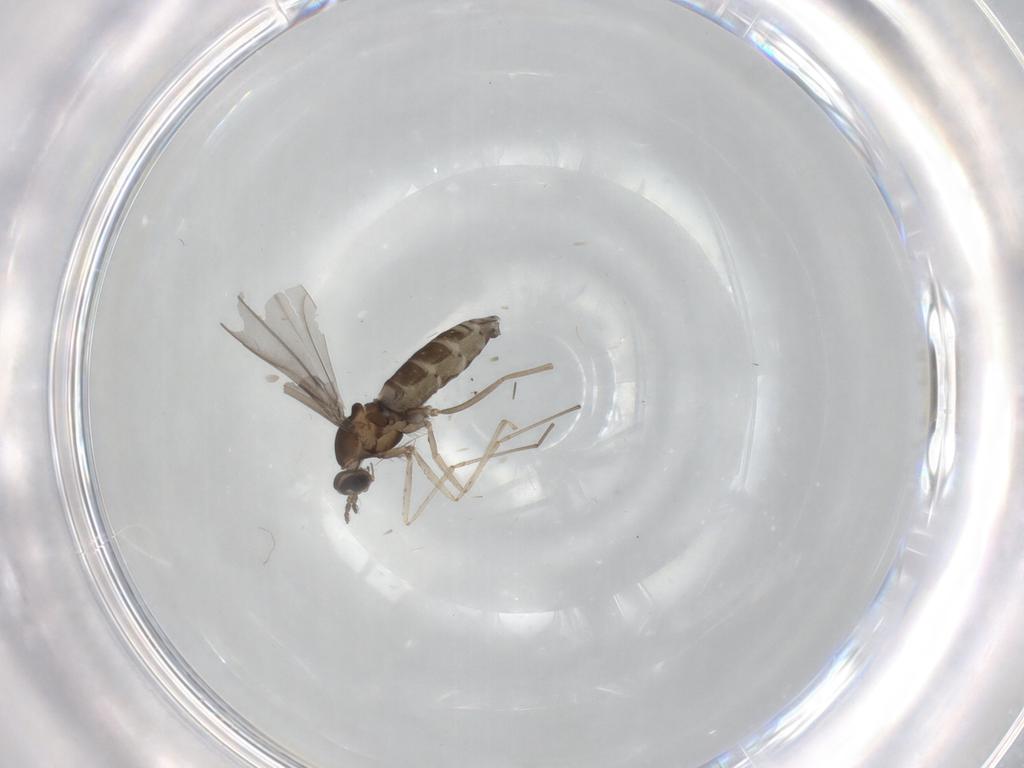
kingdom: Animalia
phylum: Arthropoda
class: Insecta
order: Diptera
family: Cecidomyiidae
